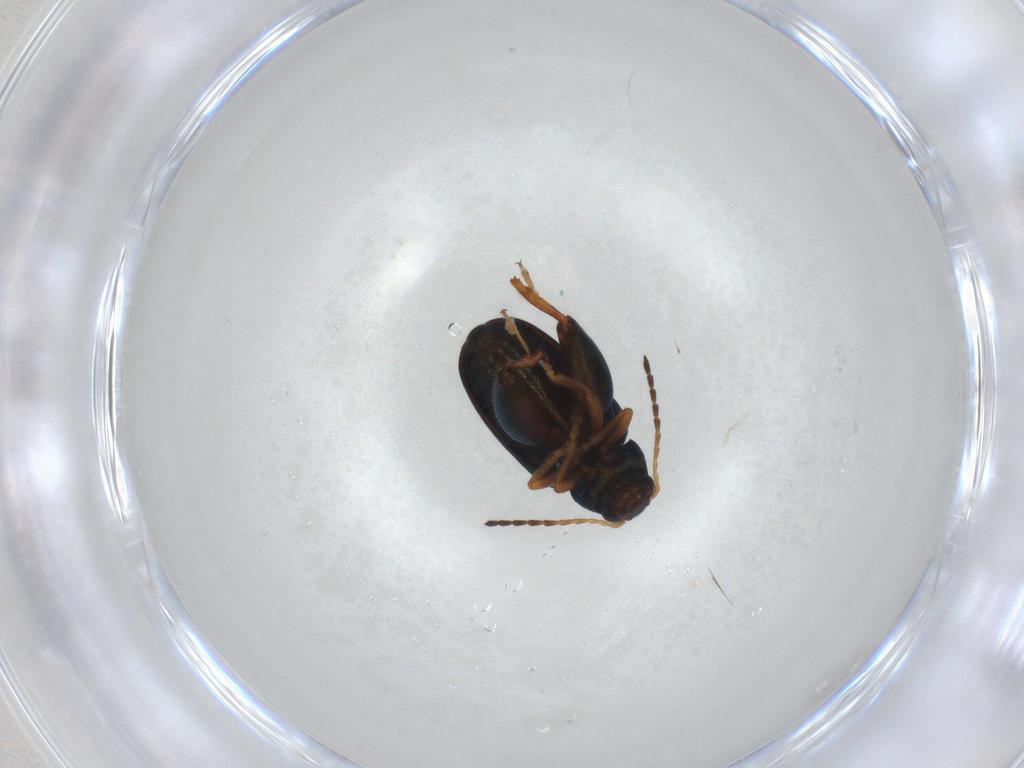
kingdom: Animalia
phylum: Arthropoda
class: Insecta
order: Coleoptera
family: Chrysomelidae
